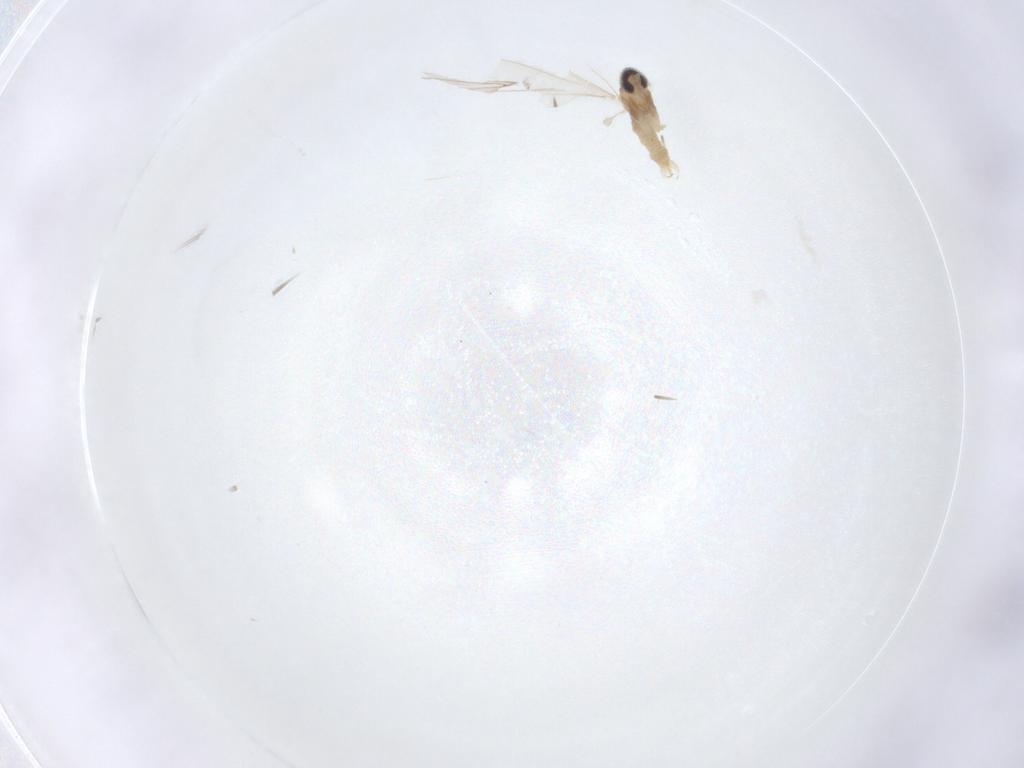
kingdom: Animalia
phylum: Arthropoda
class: Insecta
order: Diptera
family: Cecidomyiidae
